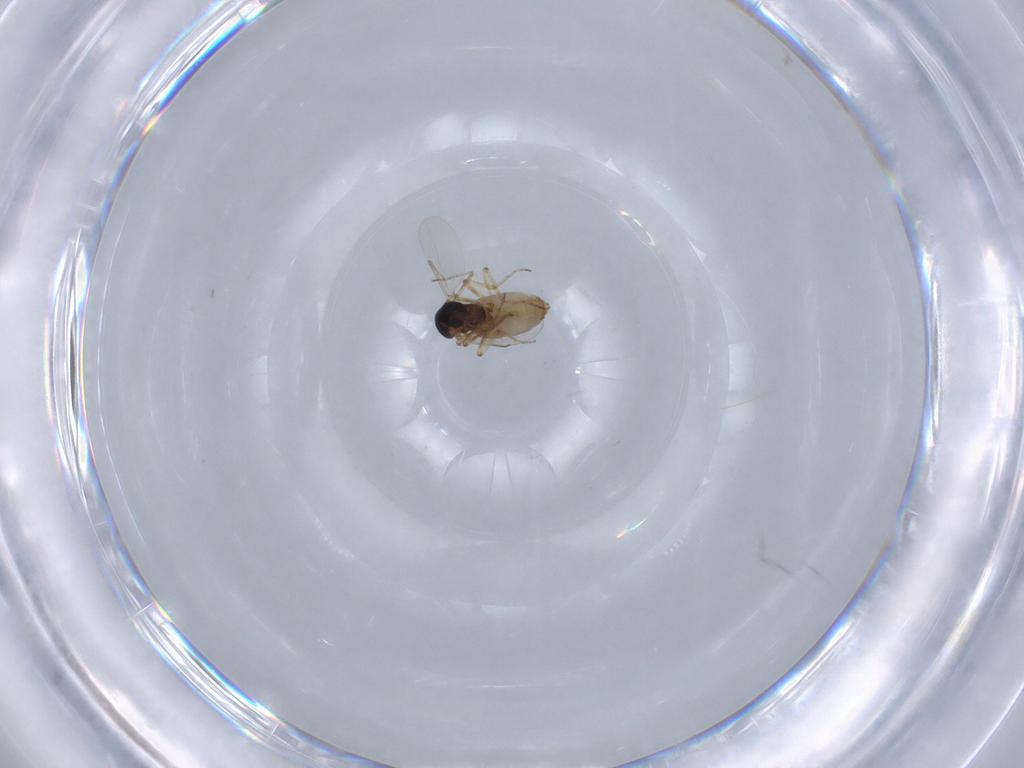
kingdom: Animalia
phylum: Arthropoda
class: Insecta
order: Diptera
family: Ceratopogonidae
